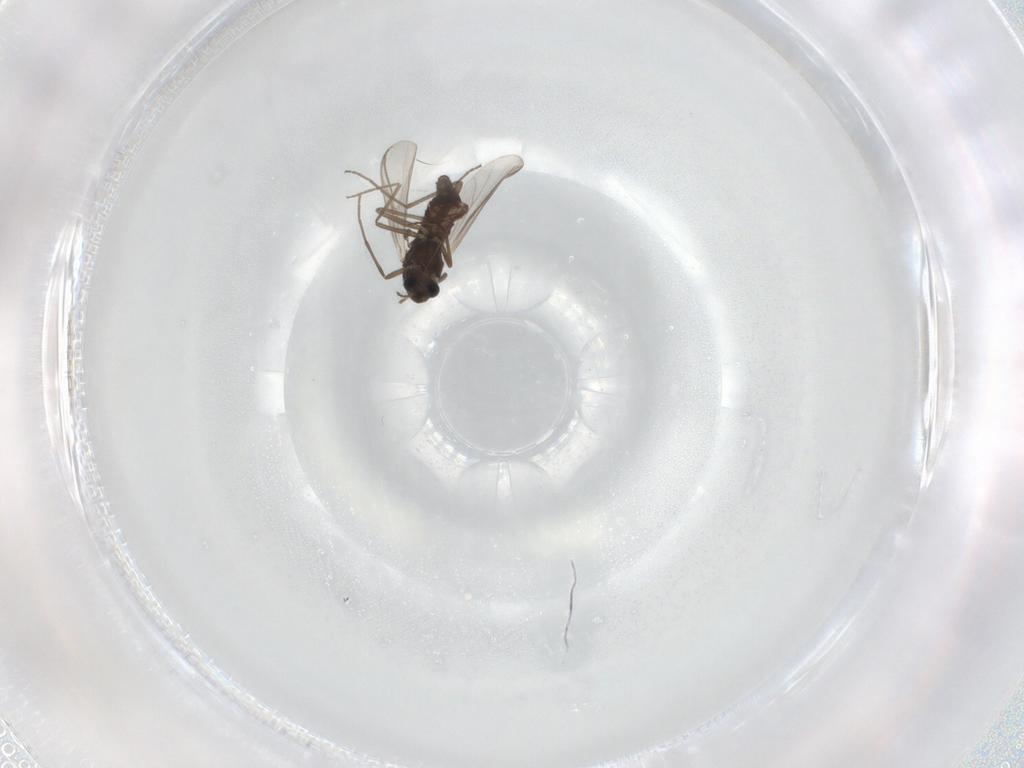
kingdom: Animalia
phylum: Arthropoda
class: Insecta
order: Diptera
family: Chironomidae
